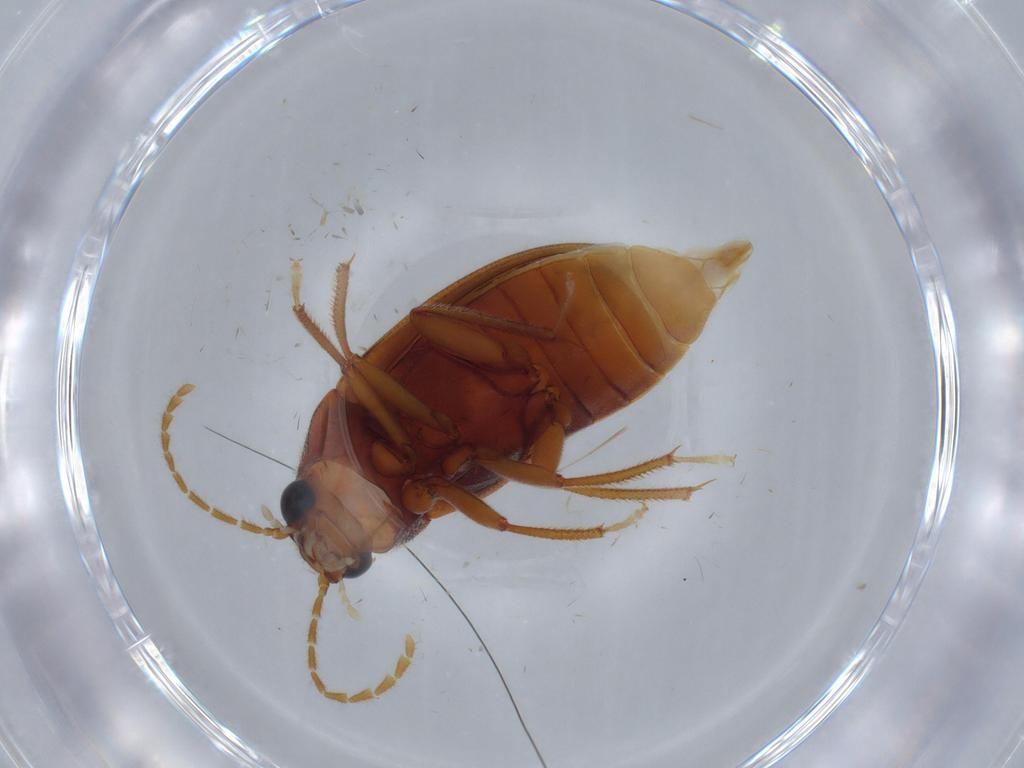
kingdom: Animalia
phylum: Arthropoda
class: Insecta
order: Coleoptera
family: Ptilodactylidae
